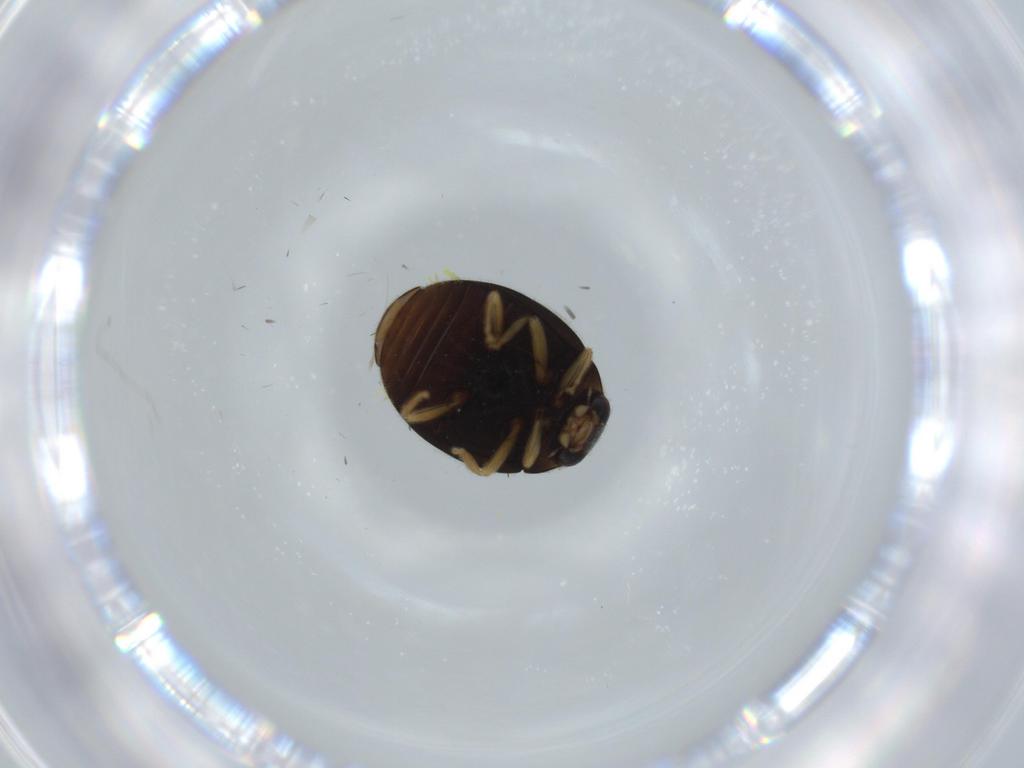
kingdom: Animalia
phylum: Arthropoda
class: Insecta
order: Coleoptera
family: Coccinellidae
